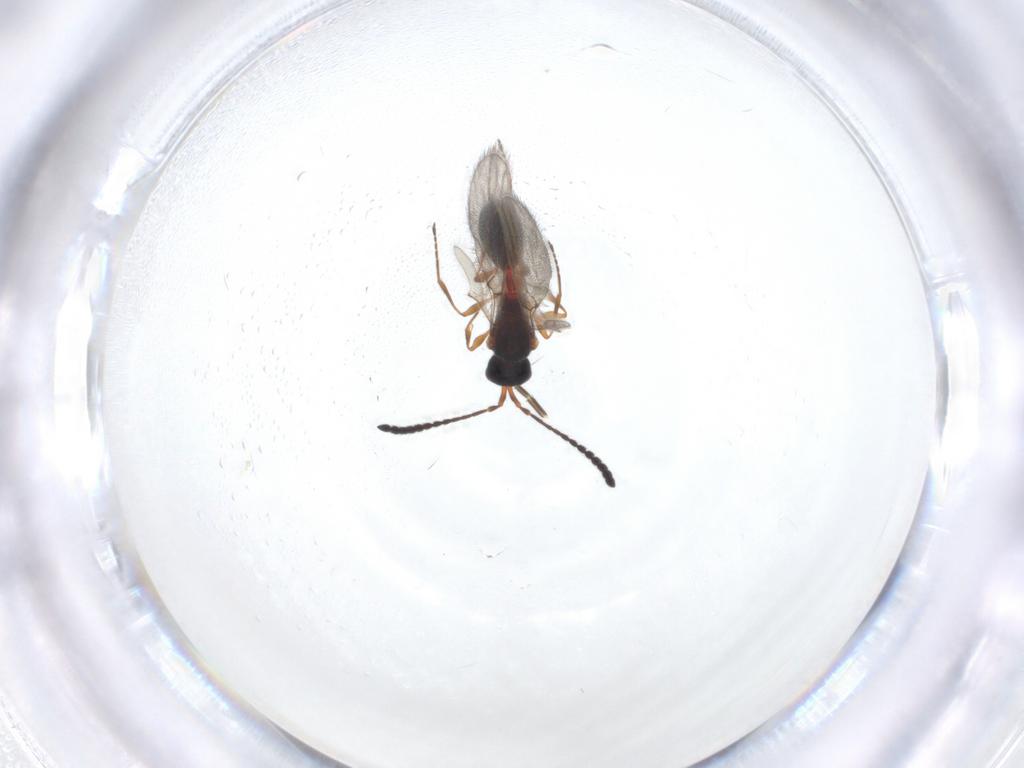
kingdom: Animalia
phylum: Arthropoda
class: Insecta
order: Hymenoptera
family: Diapriidae
